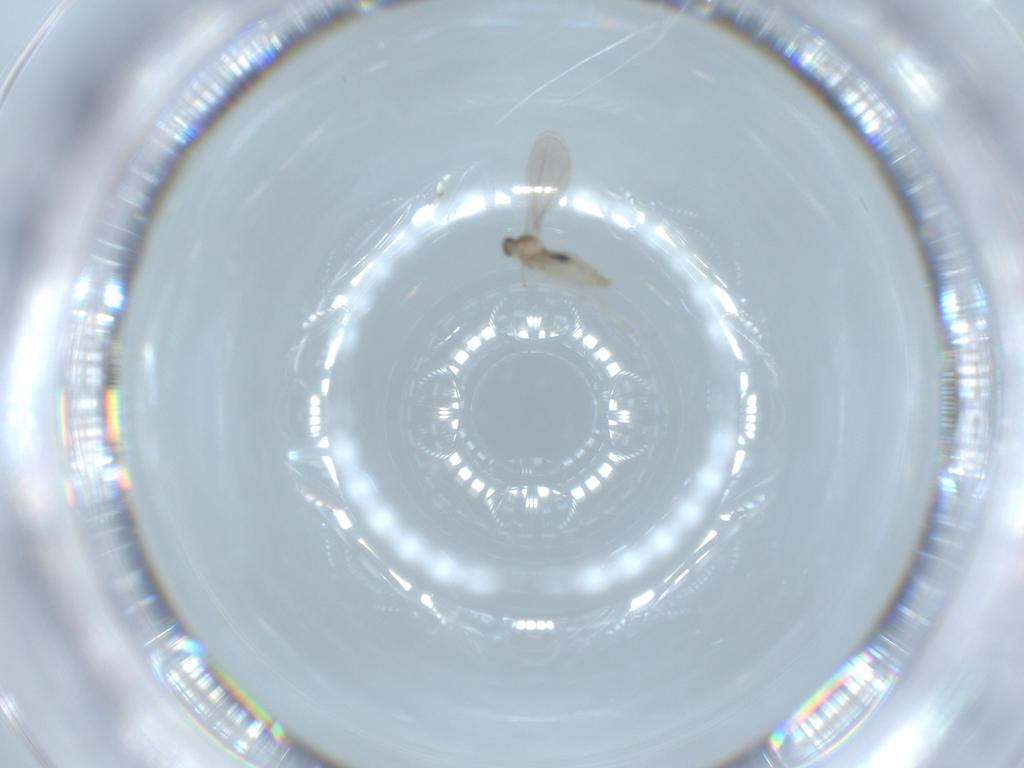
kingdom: Animalia
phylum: Arthropoda
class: Insecta
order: Diptera
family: Cecidomyiidae
